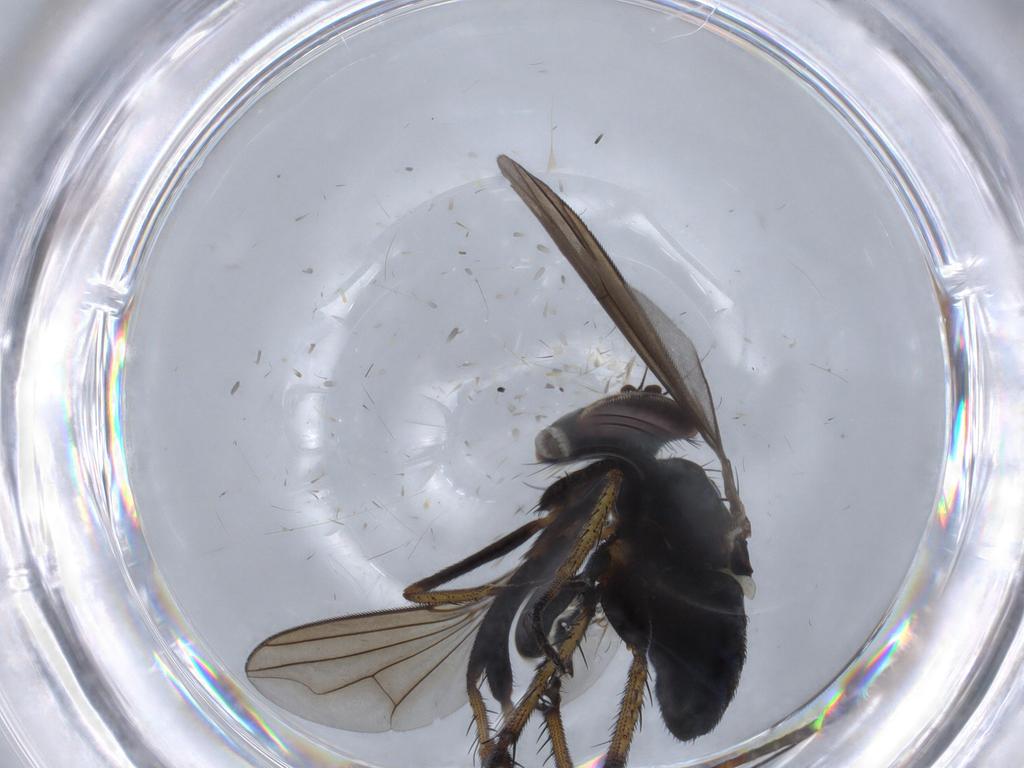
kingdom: Animalia
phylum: Arthropoda
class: Insecta
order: Diptera
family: Dolichopodidae
